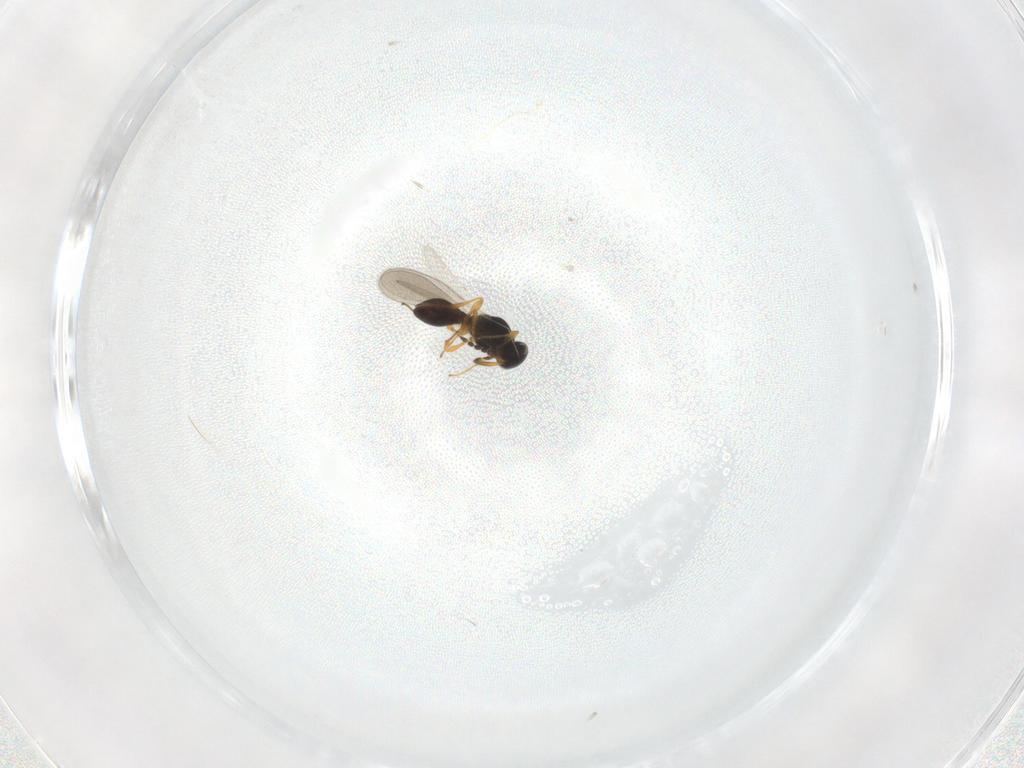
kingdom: Animalia
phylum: Arthropoda
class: Insecta
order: Hymenoptera
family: Platygastridae
